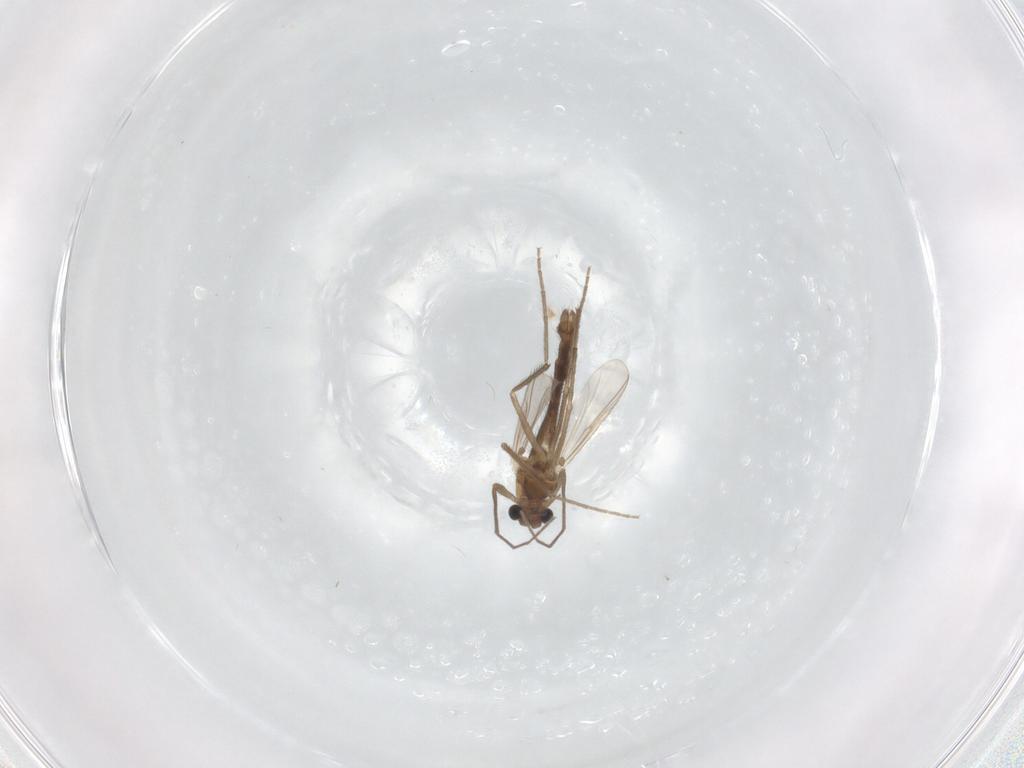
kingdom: Animalia
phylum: Arthropoda
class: Insecta
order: Diptera
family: Chironomidae
